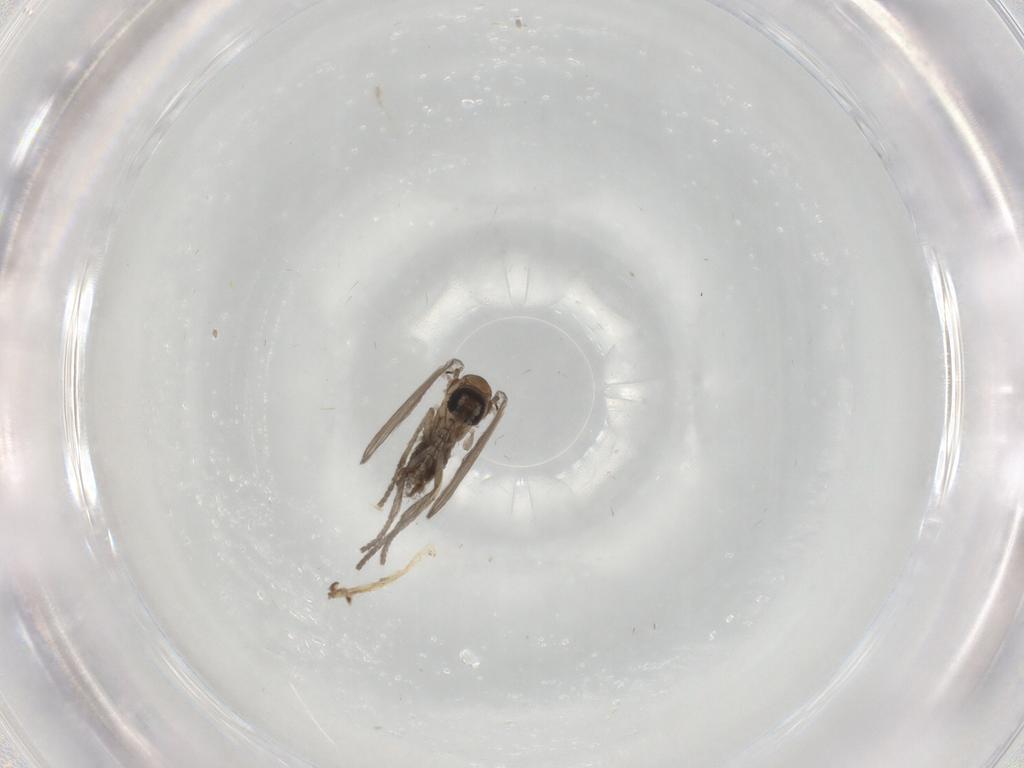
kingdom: Animalia
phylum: Arthropoda
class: Insecta
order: Diptera
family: Psychodidae
